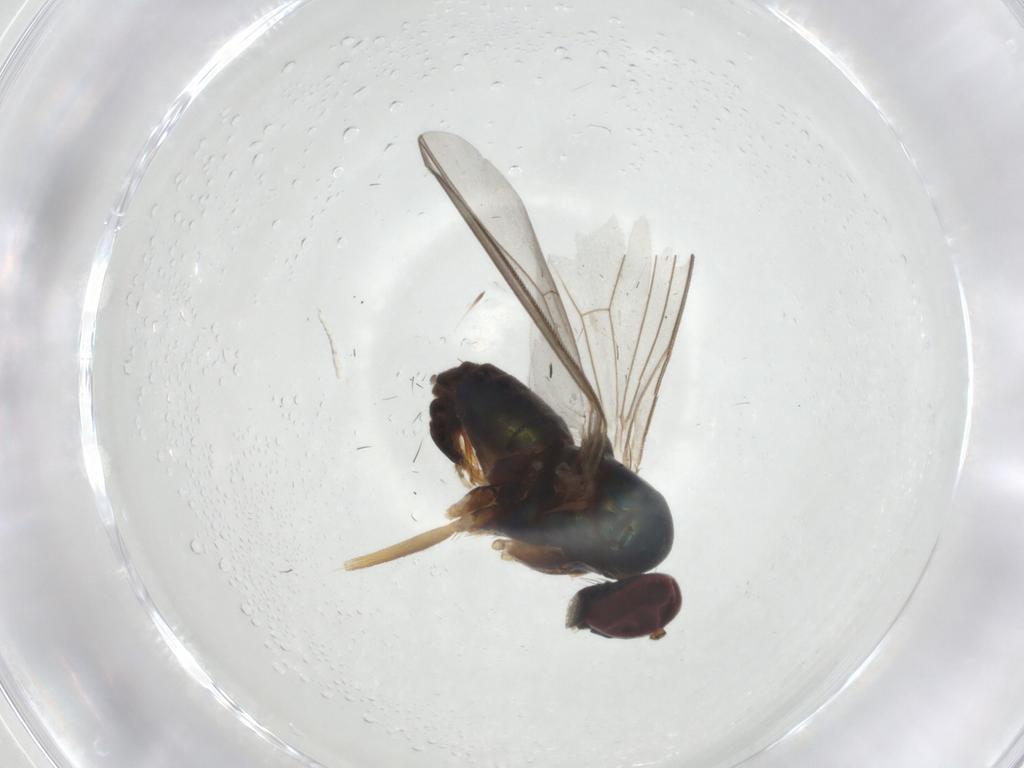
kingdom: Animalia
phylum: Arthropoda
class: Insecta
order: Diptera
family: Dolichopodidae
